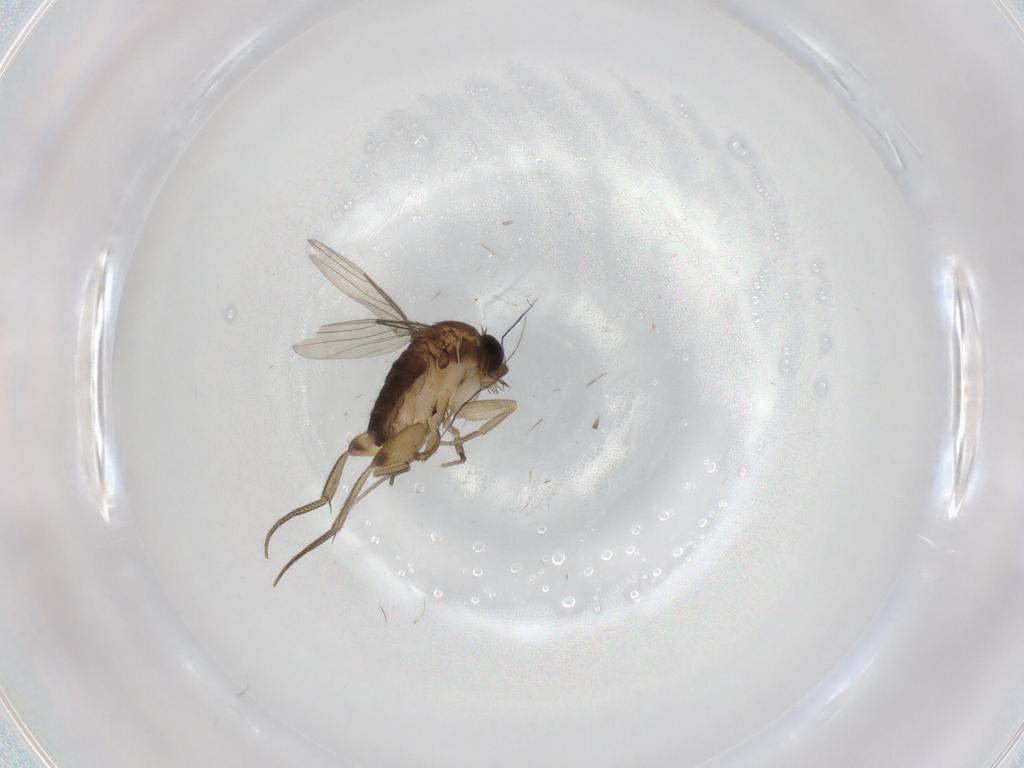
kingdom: Animalia
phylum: Arthropoda
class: Insecta
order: Diptera
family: Phoridae
